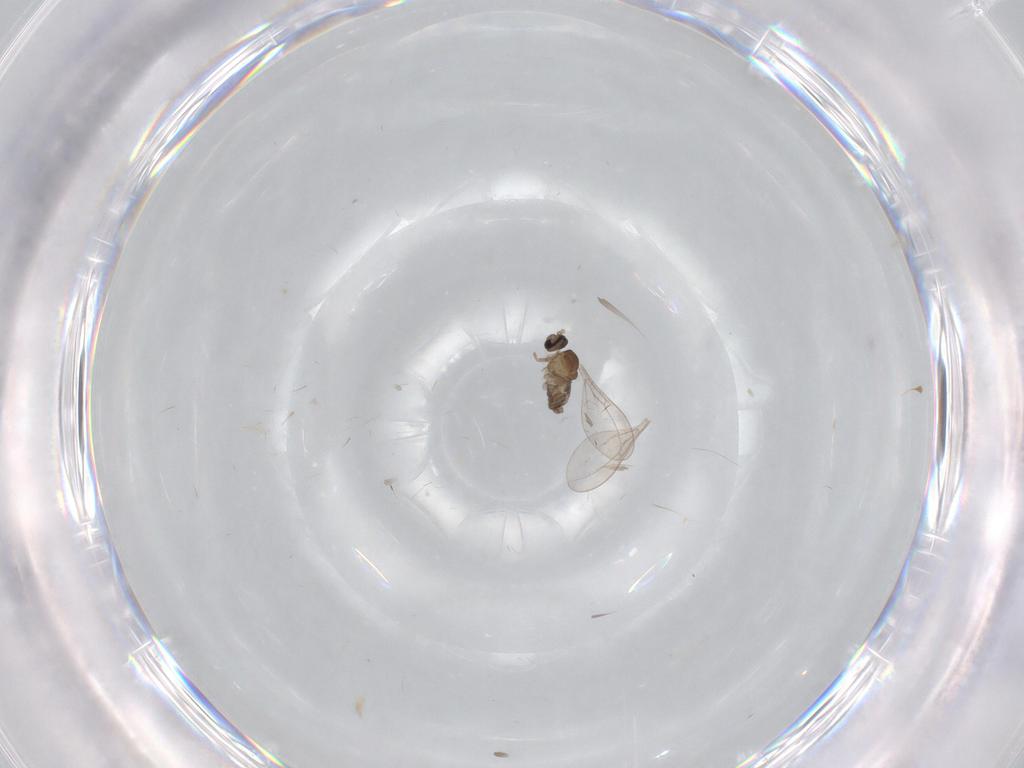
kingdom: Animalia
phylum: Arthropoda
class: Insecta
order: Diptera
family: Cecidomyiidae
